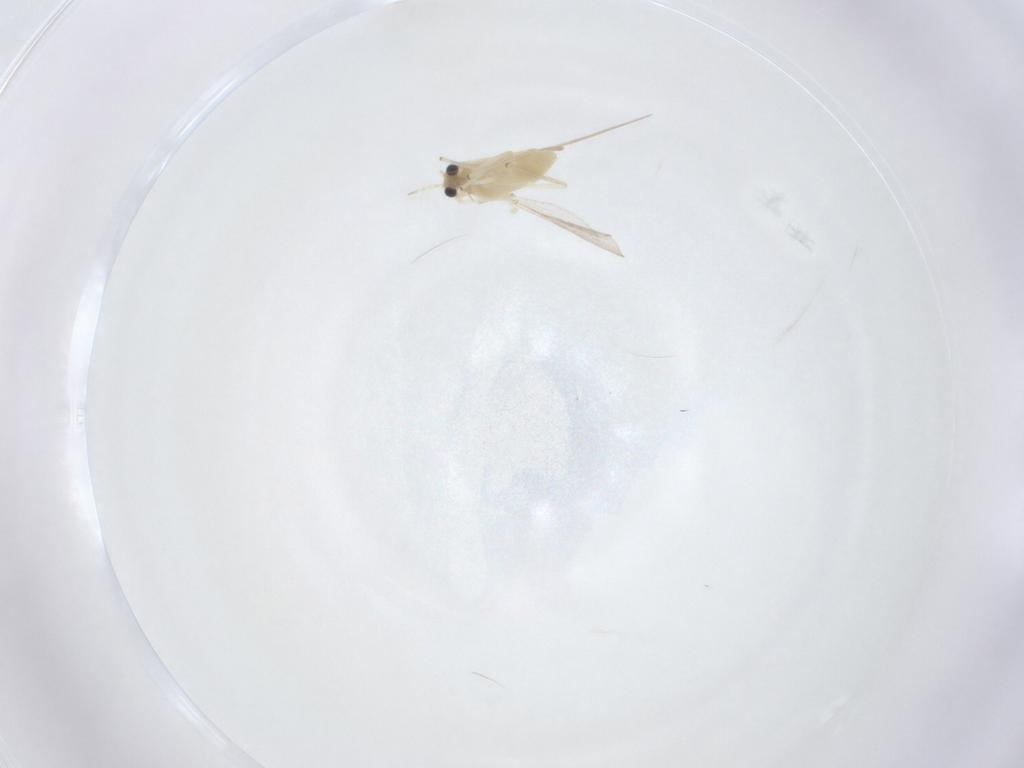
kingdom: Animalia
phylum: Arthropoda
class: Insecta
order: Diptera
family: Chironomidae
